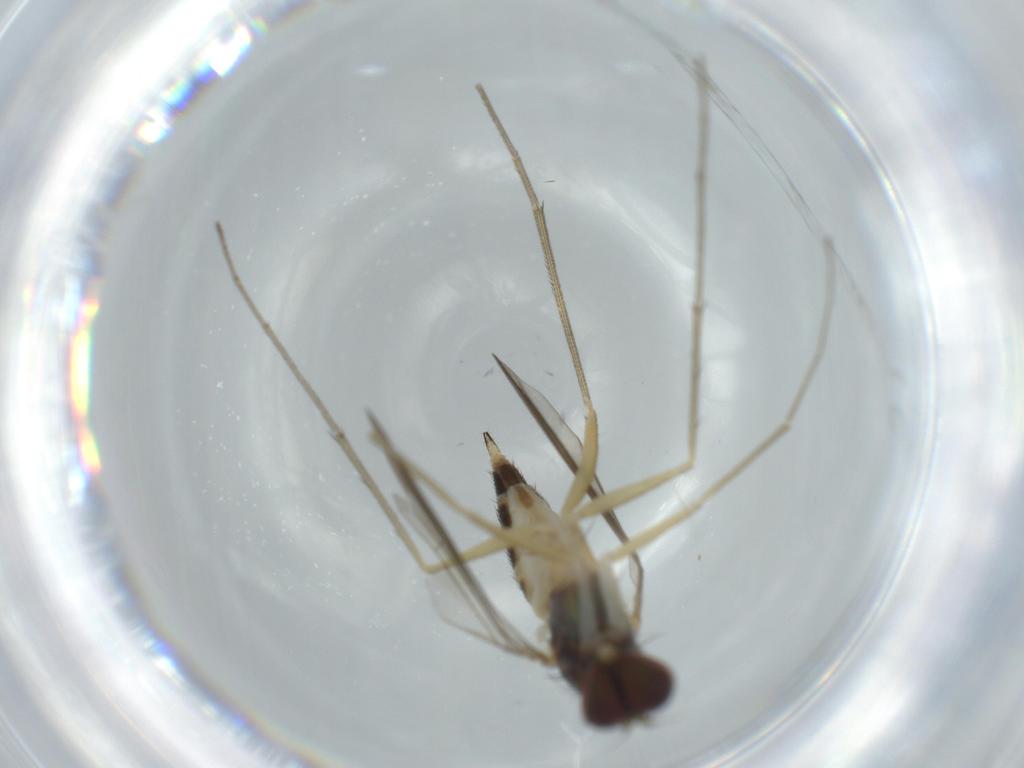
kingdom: Animalia
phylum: Arthropoda
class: Insecta
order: Diptera
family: Dolichopodidae
